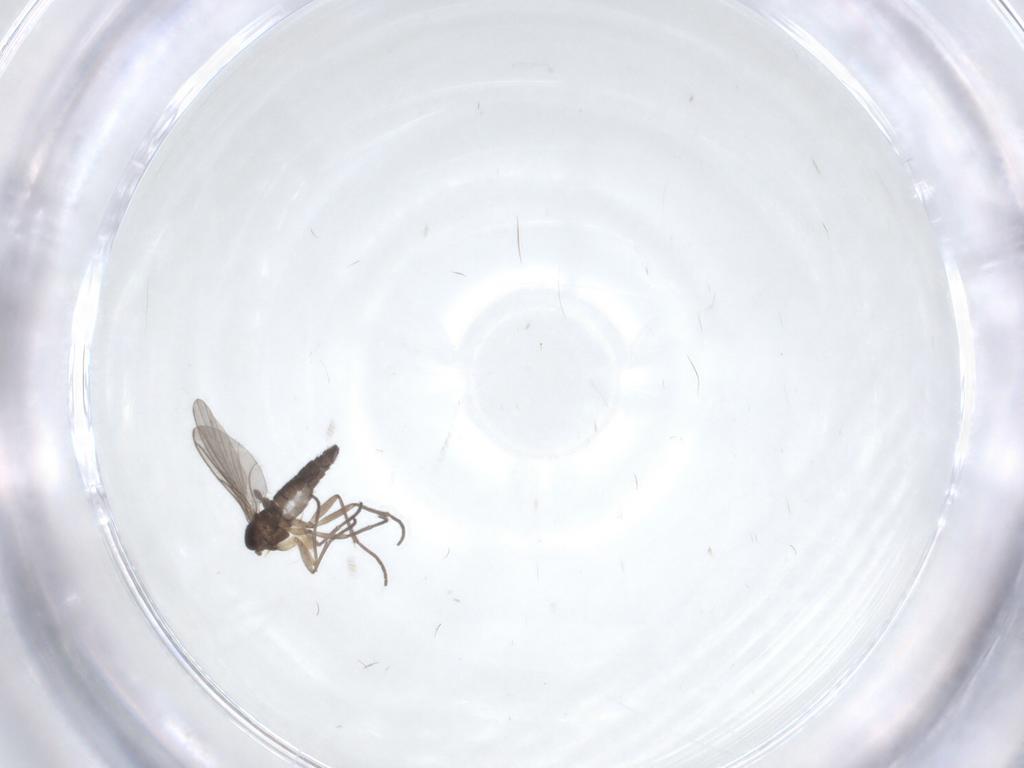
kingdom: Animalia
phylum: Arthropoda
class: Insecta
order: Diptera
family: Sciaridae
